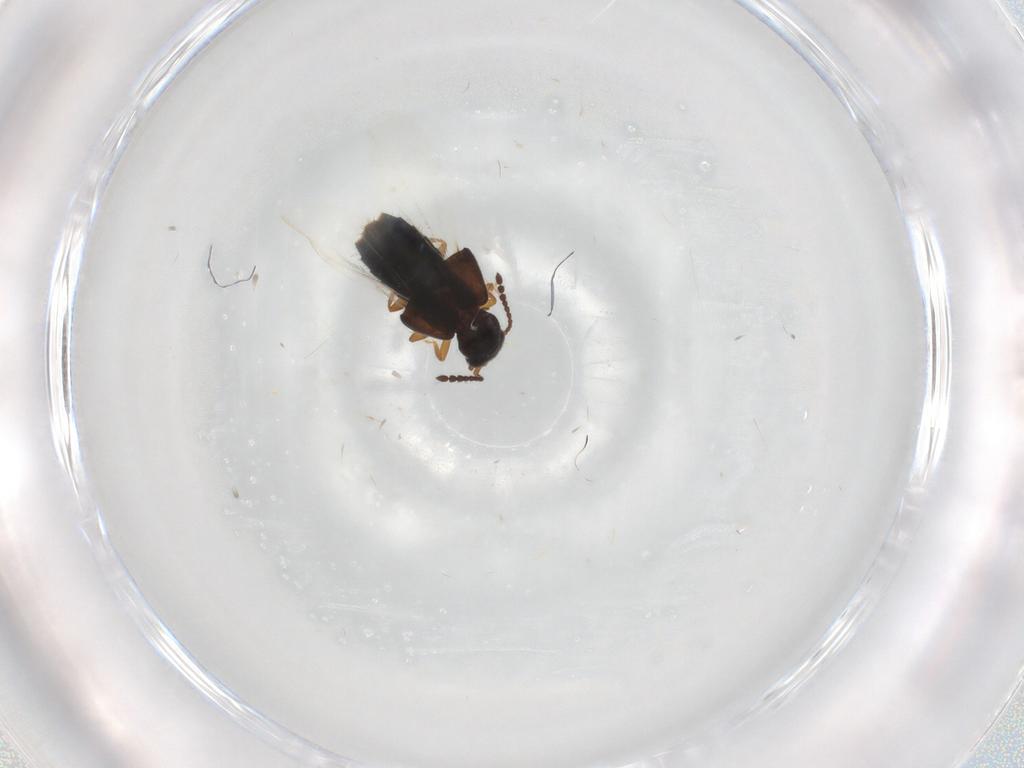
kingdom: Animalia
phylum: Arthropoda
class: Insecta
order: Coleoptera
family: Staphylinidae
